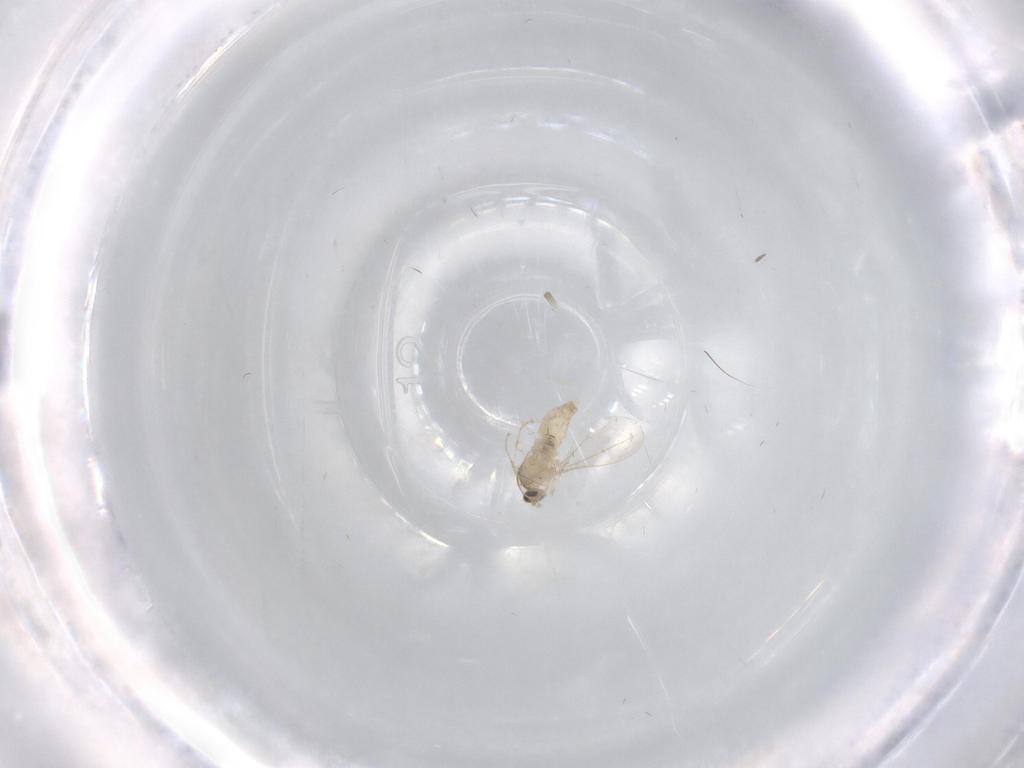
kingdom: Animalia
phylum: Arthropoda
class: Insecta
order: Diptera
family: Cecidomyiidae
